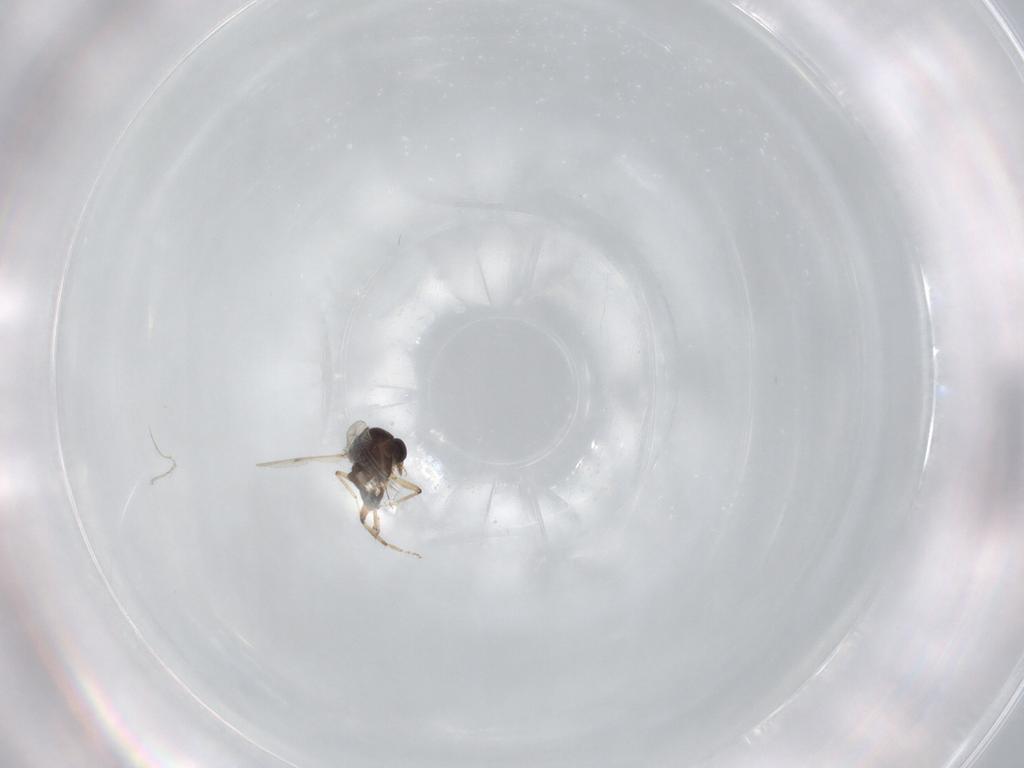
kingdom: Animalia
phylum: Arthropoda
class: Insecta
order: Diptera
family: Ceratopogonidae
